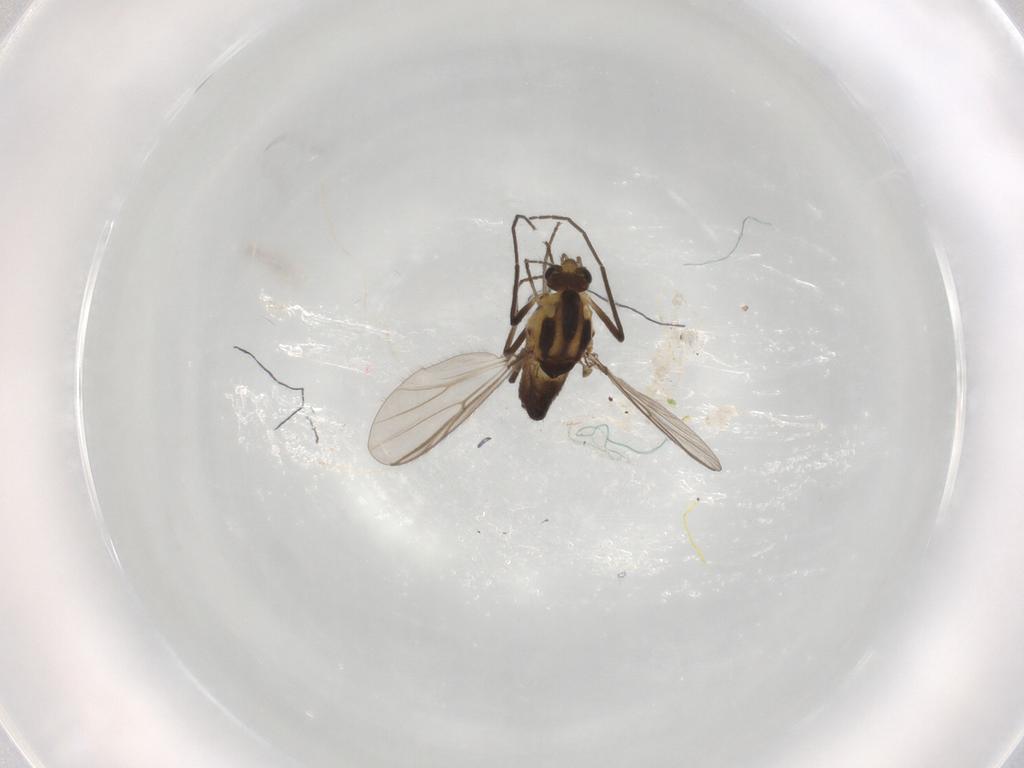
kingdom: Animalia
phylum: Arthropoda
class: Insecta
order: Diptera
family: Chironomidae
